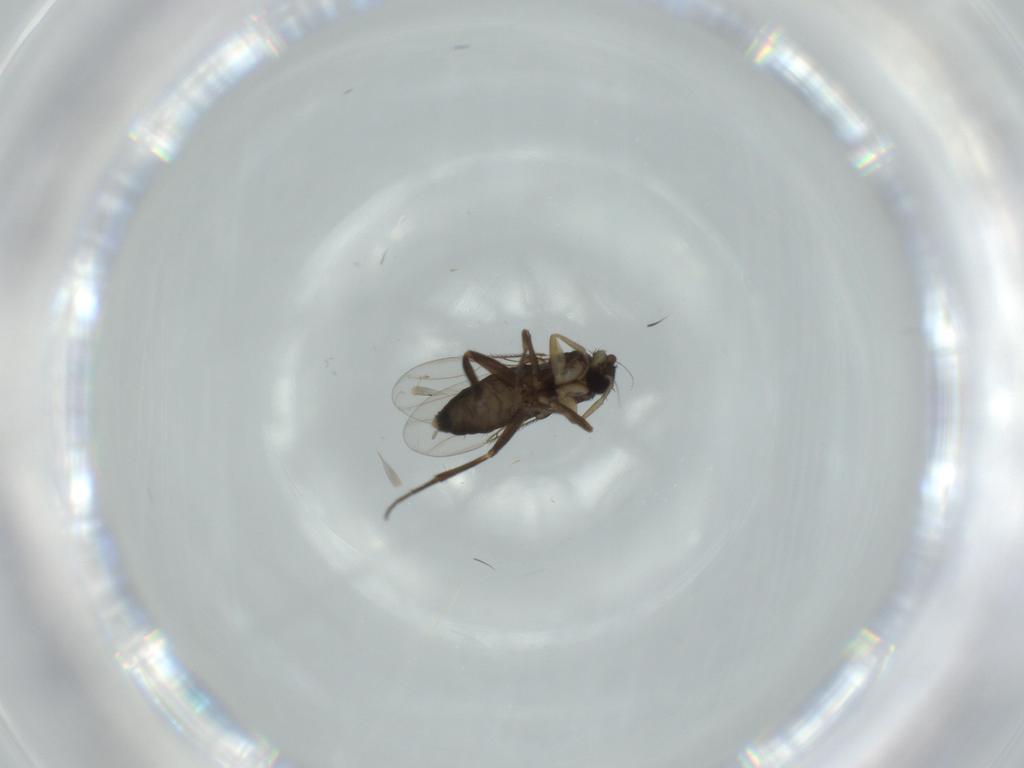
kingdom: Animalia
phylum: Arthropoda
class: Insecta
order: Diptera
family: Phoridae
